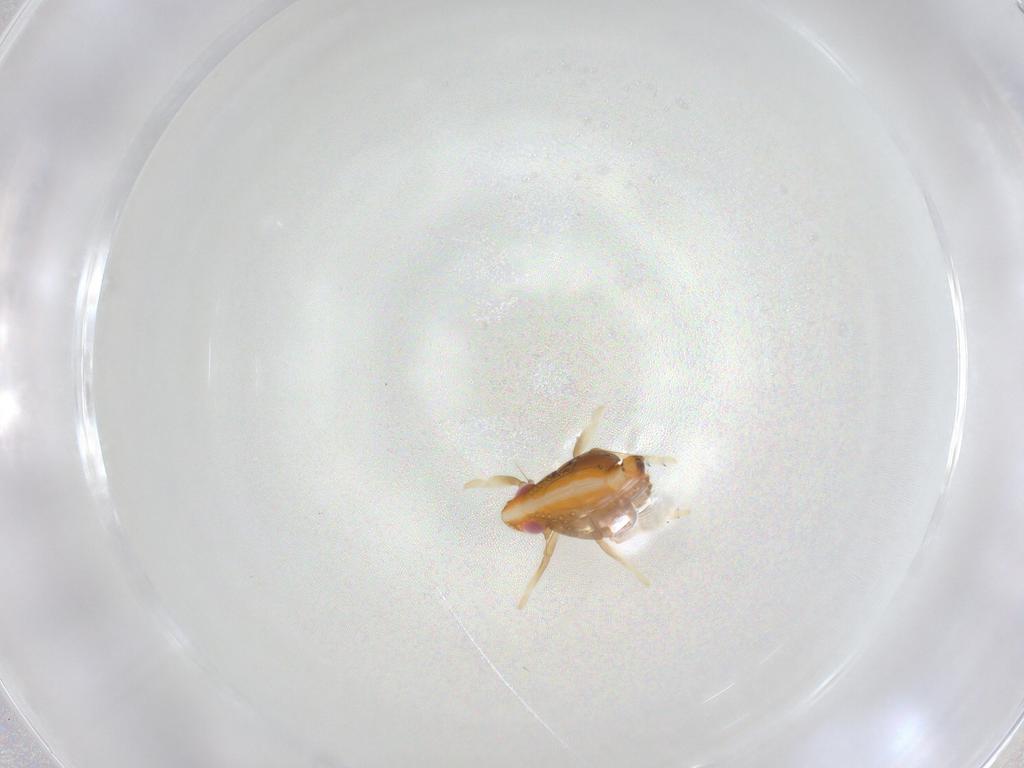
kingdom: Animalia
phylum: Arthropoda
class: Insecta
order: Hemiptera
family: Fulgoroidea_incertae_sedis
